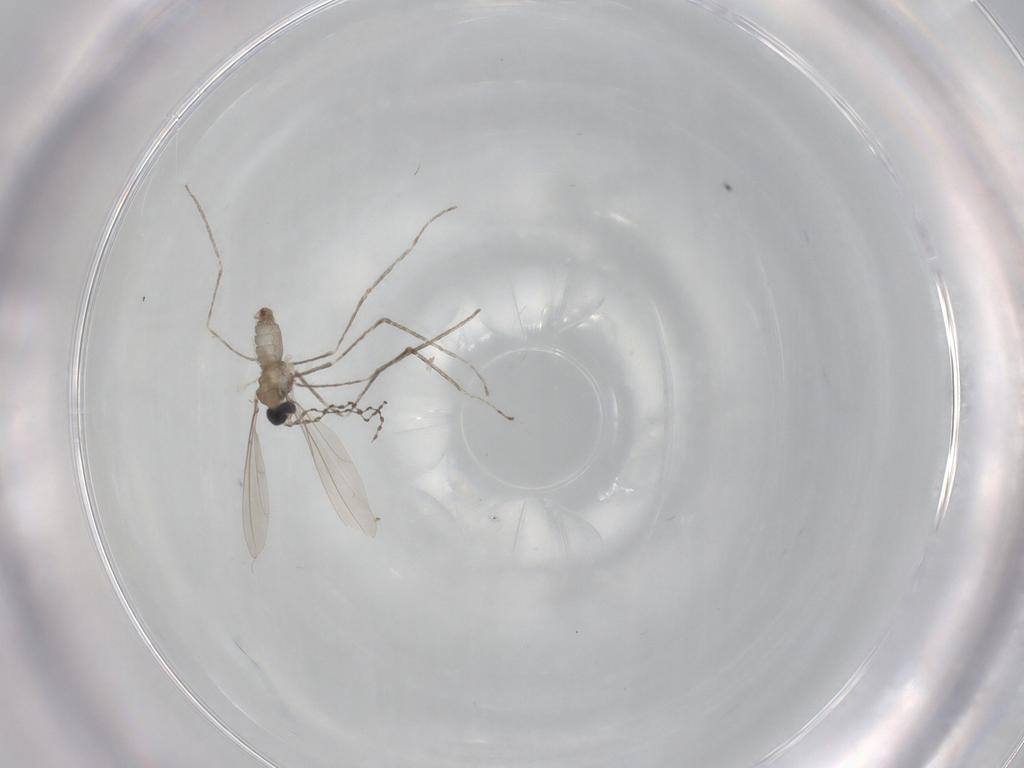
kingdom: Animalia
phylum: Arthropoda
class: Insecta
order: Diptera
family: Cecidomyiidae
